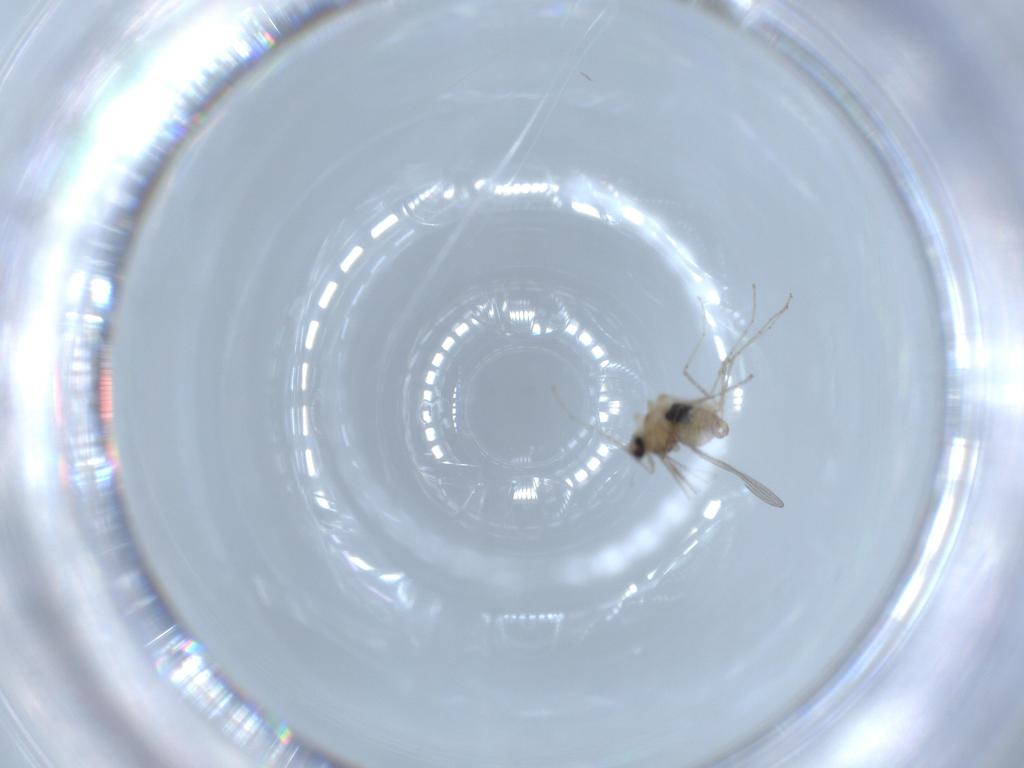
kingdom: Animalia
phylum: Arthropoda
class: Insecta
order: Diptera
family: Cecidomyiidae
